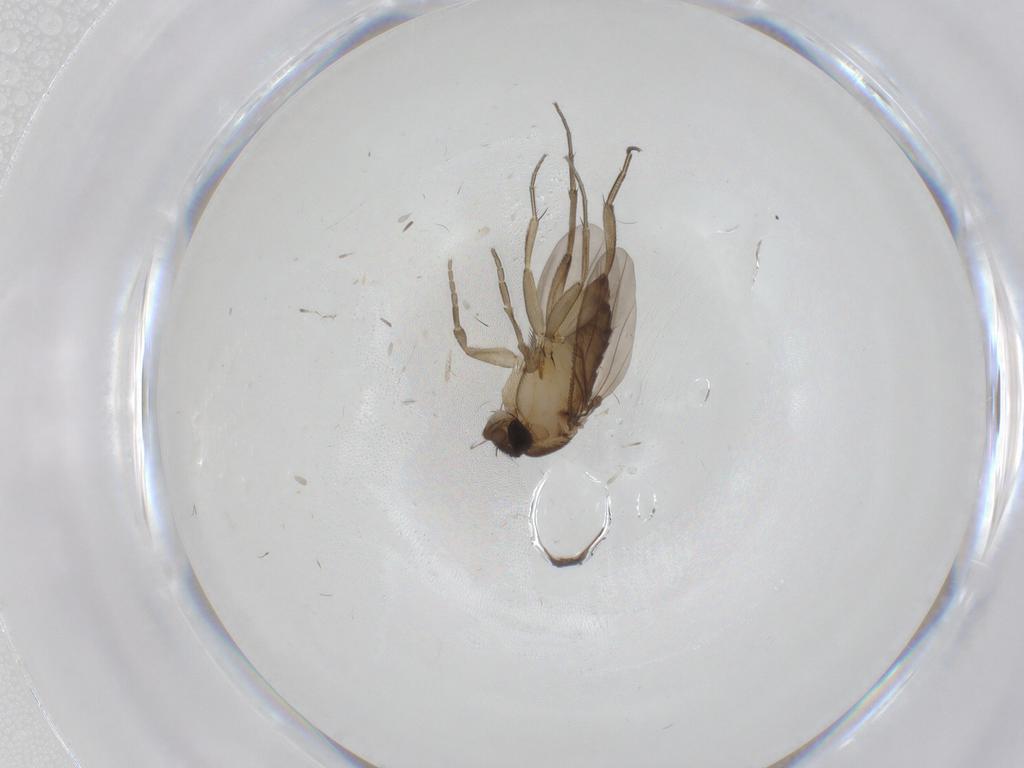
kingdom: Animalia
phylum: Arthropoda
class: Insecta
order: Diptera
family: Phoridae
